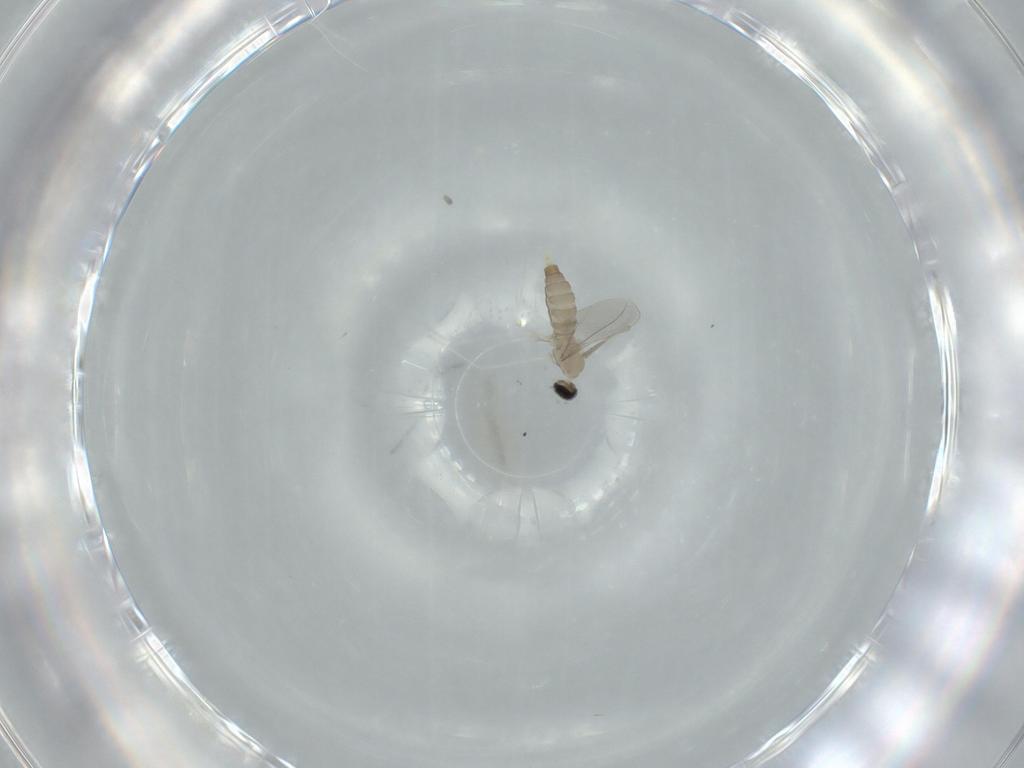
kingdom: Animalia
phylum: Arthropoda
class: Insecta
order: Diptera
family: Cecidomyiidae
